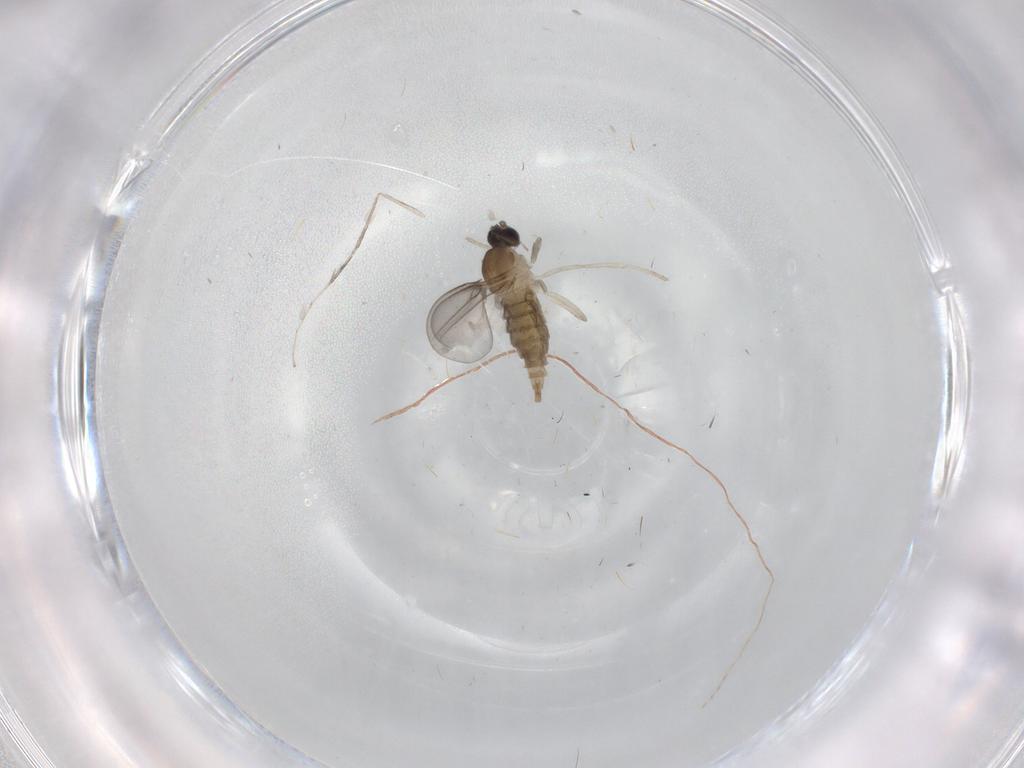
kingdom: Animalia
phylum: Arthropoda
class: Insecta
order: Diptera
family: Cecidomyiidae
